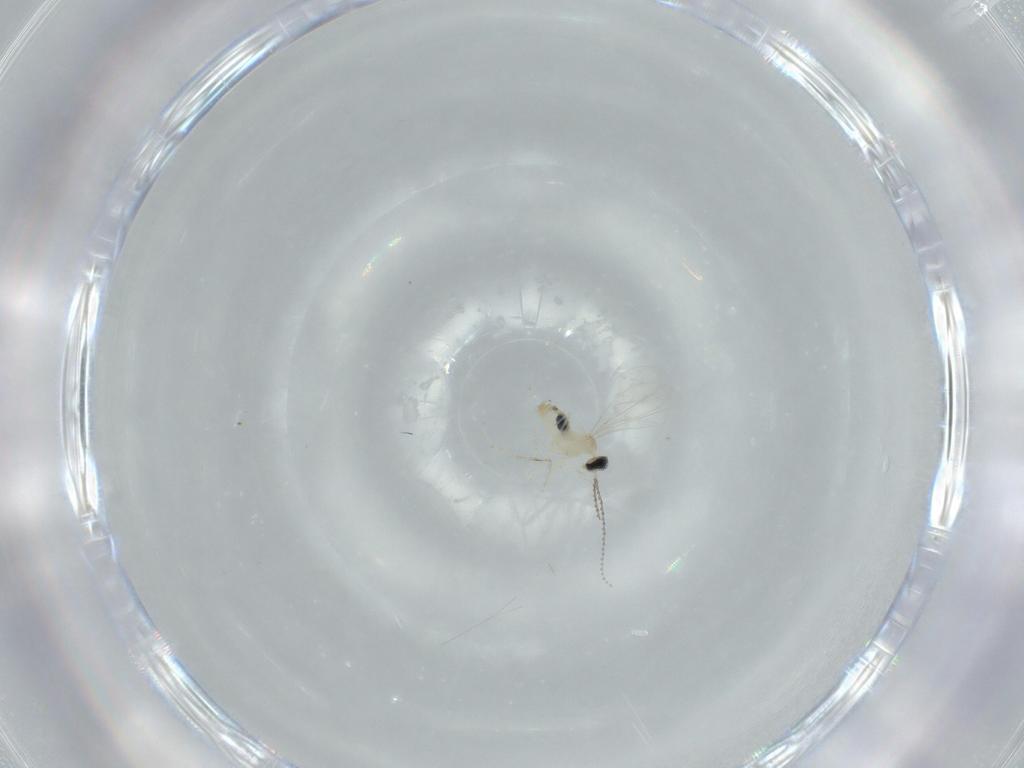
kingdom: Animalia
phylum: Arthropoda
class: Insecta
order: Diptera
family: Cecidomyiidae
